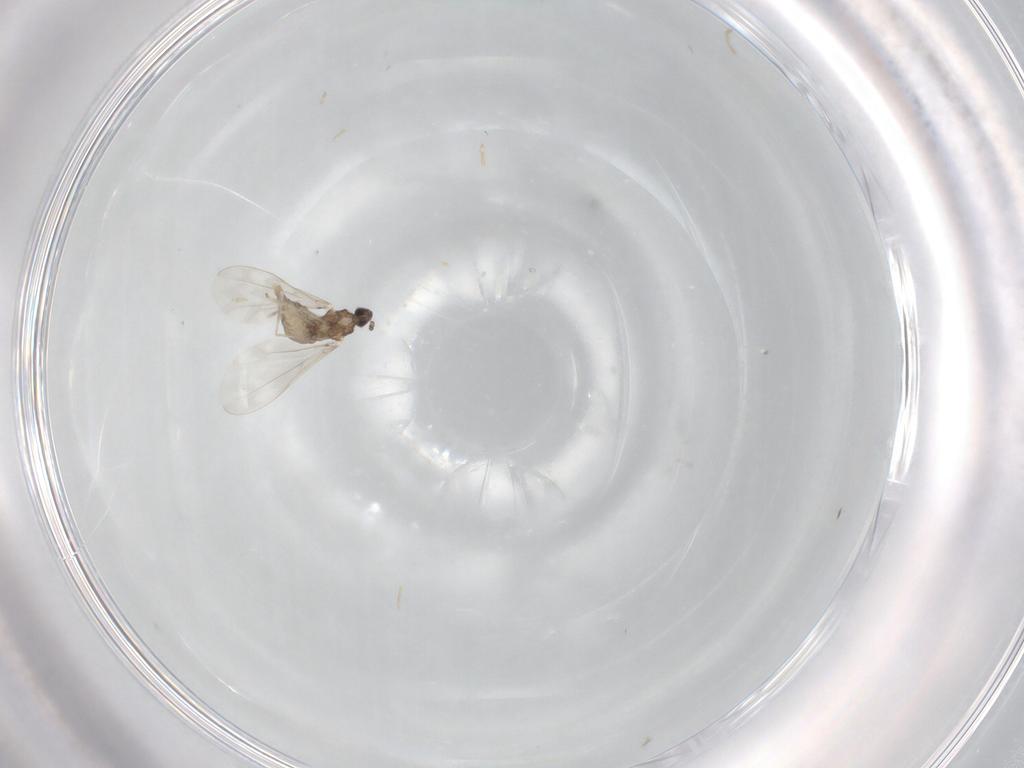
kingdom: Animalia
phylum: Arthropoda
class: Insecta
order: Diptera
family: Cecidomyiidae
